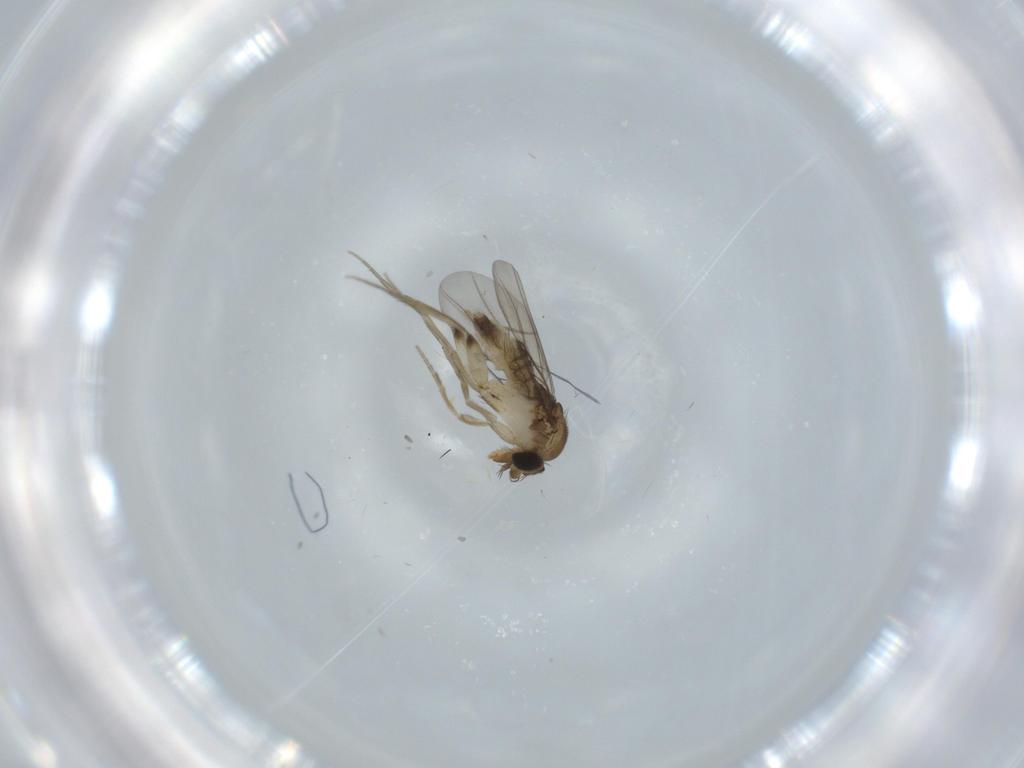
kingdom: Animalia
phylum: Arthropoda
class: Insecta
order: Diptera
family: Phoridae
